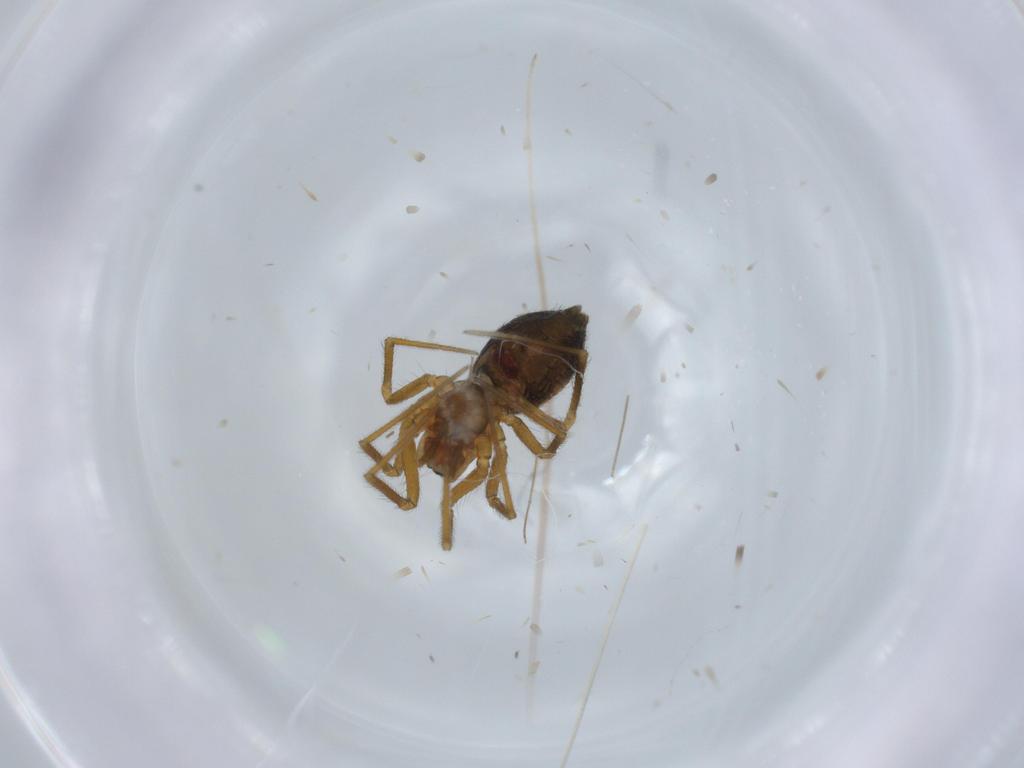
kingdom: Animalia
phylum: Arthropoda
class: Arachnida
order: Araneae
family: Linyphiidae
